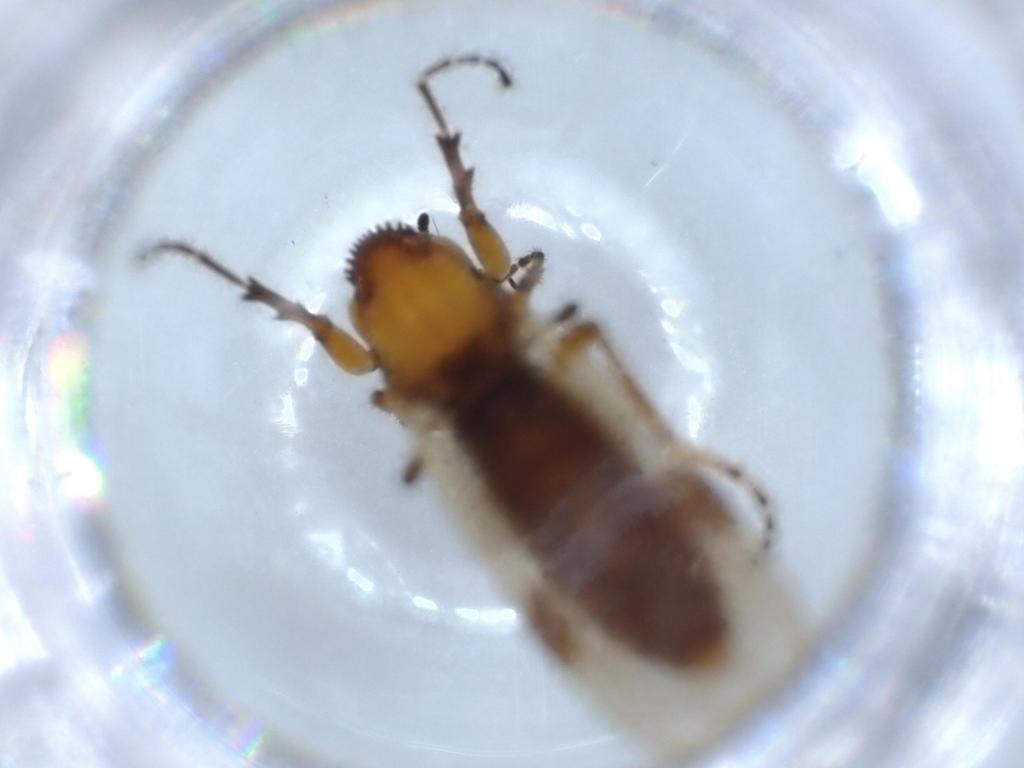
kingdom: Animalia
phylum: Arthropoda
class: Insecta
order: Diptera
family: Bibionidae
